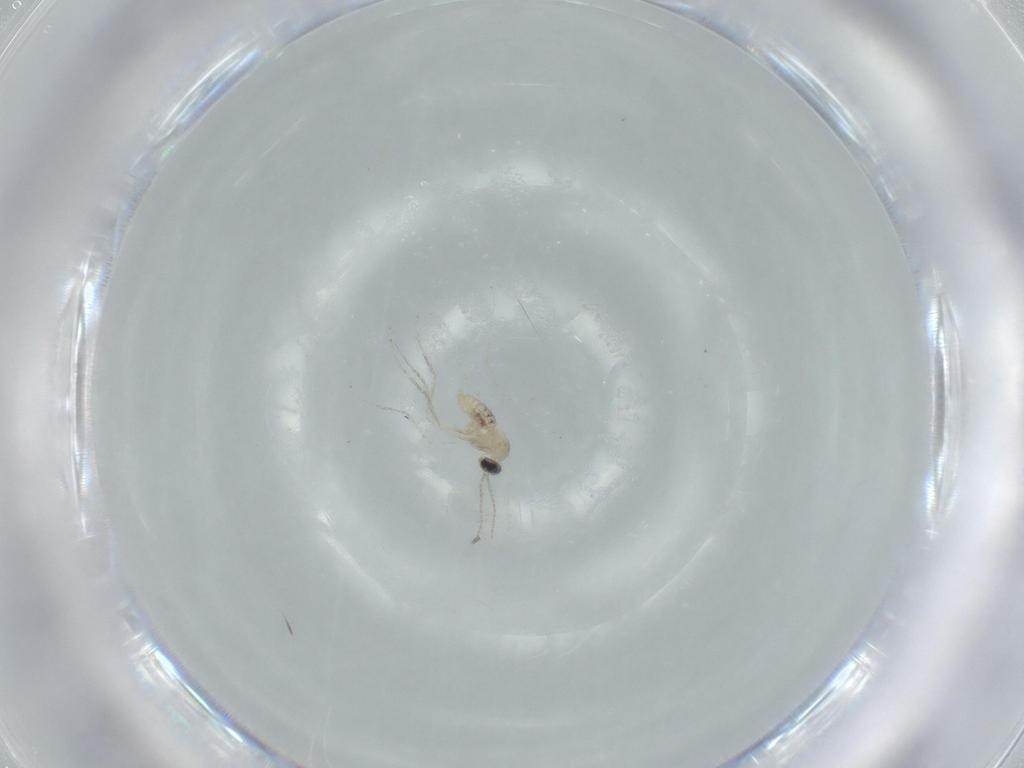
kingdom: Animalia
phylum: Arthropoda
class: Insecta
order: Diptera
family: Cecidomyiidae
